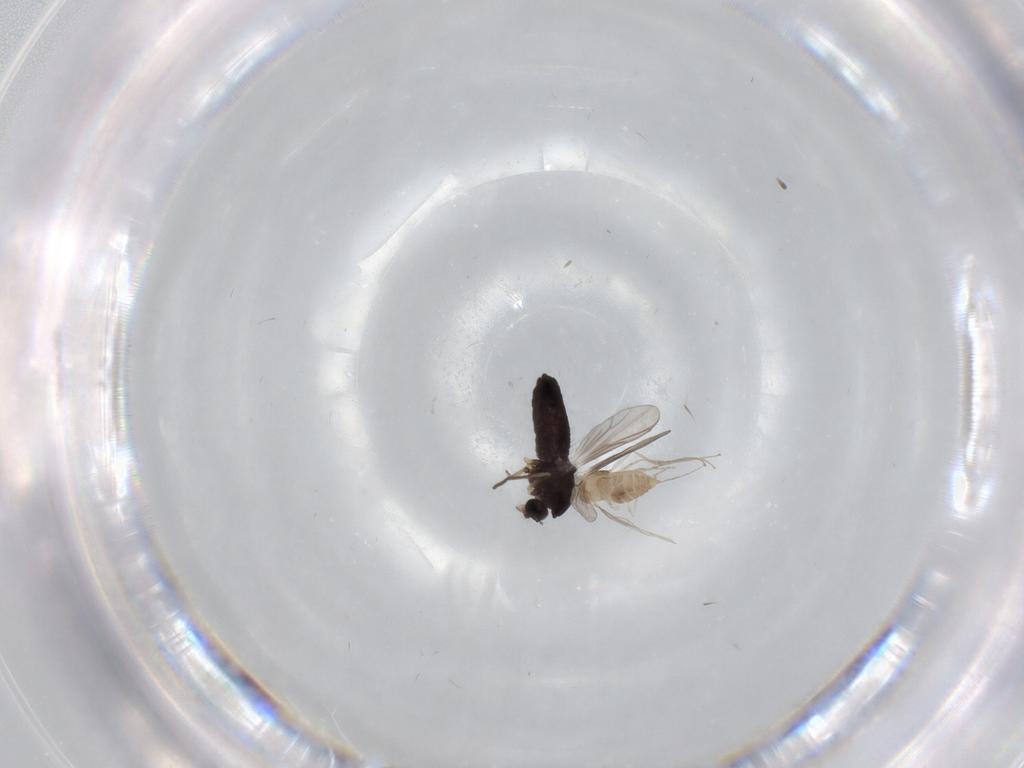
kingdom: Animalia
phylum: Arthropoda
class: Insecta
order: Diptera
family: Chironomidae
